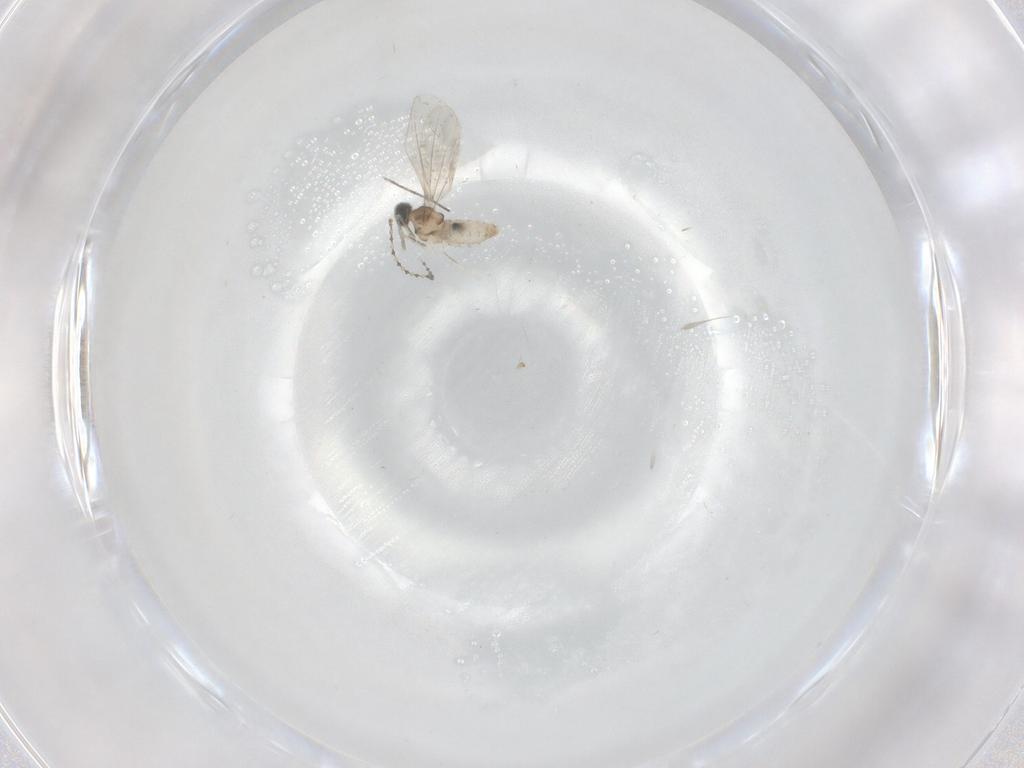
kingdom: Animalia
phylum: Arthropoda
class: Insecta
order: Diptera
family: Cecidomyiidae
